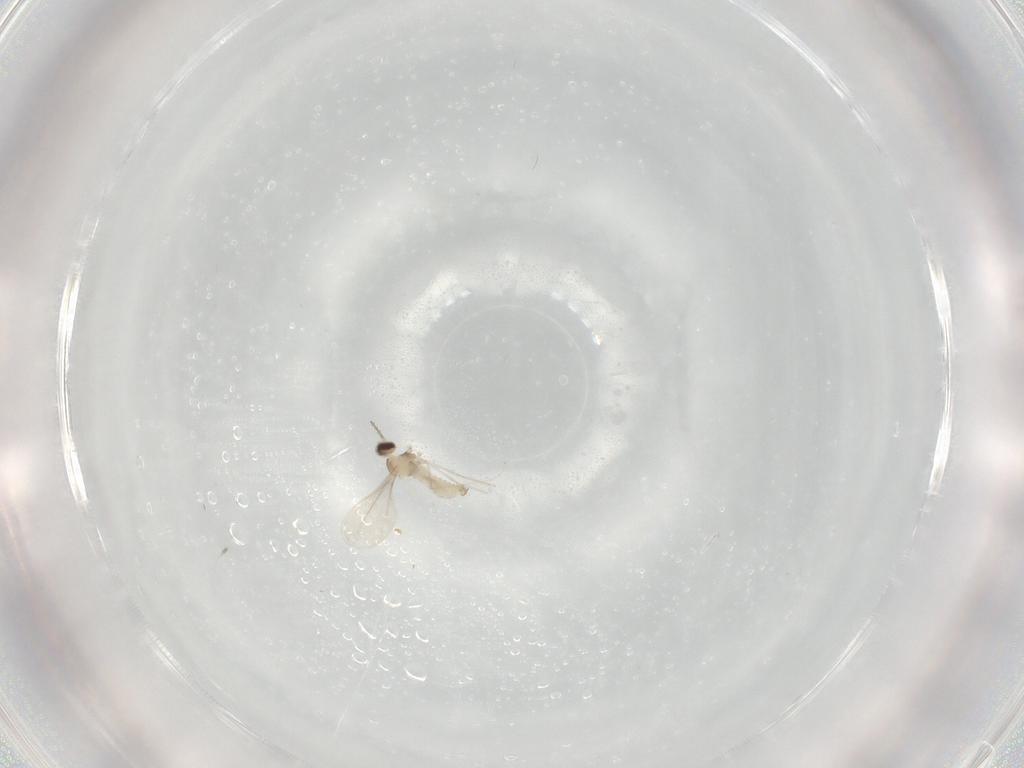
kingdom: Animalia
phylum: Arthropoda
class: Insecta
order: Diptera
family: Cecidomyiidae
